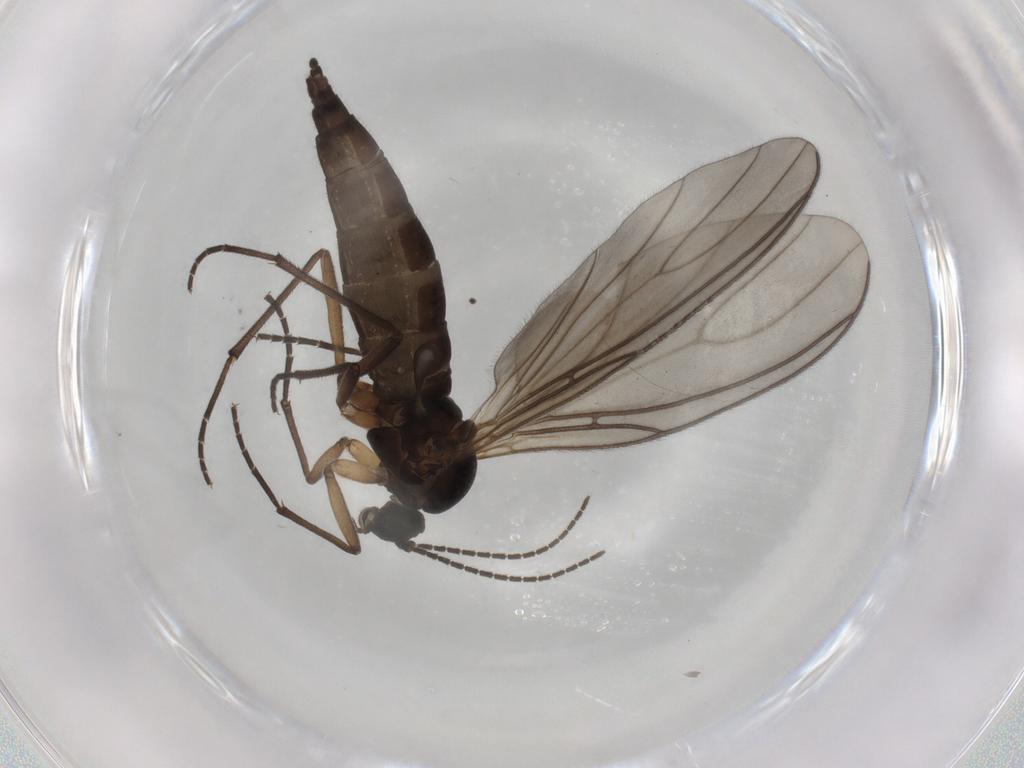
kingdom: Animalia
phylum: Arthropoda
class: Insecta
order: Diptera
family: Sciaridae
